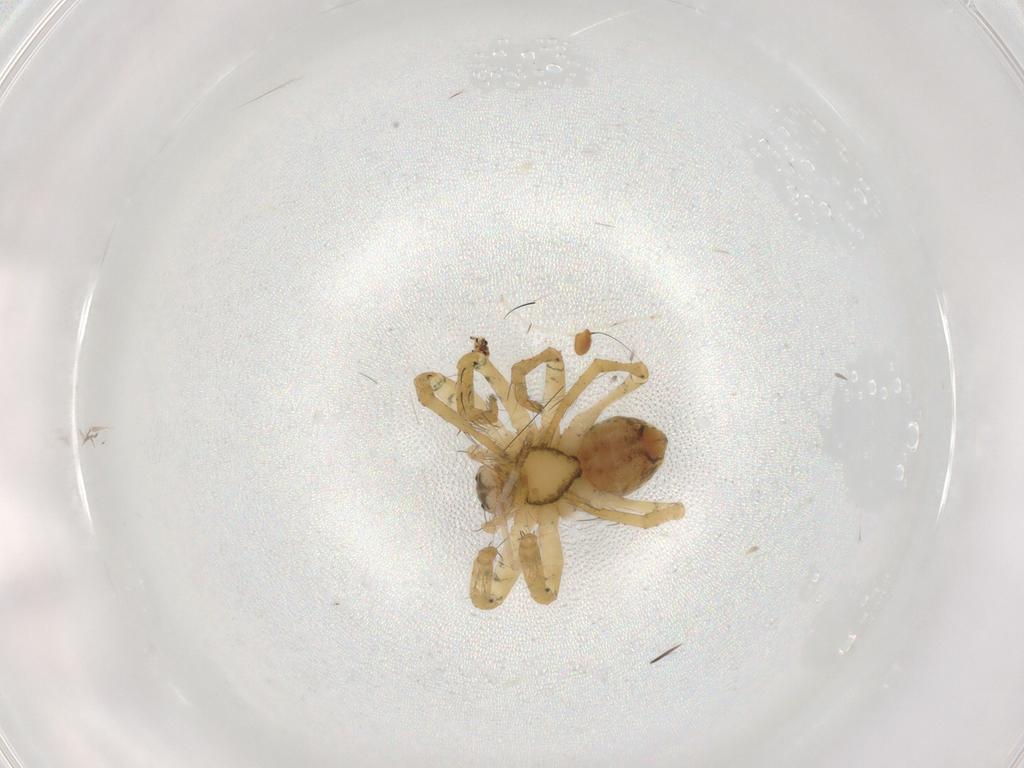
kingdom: Animalia
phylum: Arthropoda
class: Arachnida
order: Araneae
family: Pisauridae
